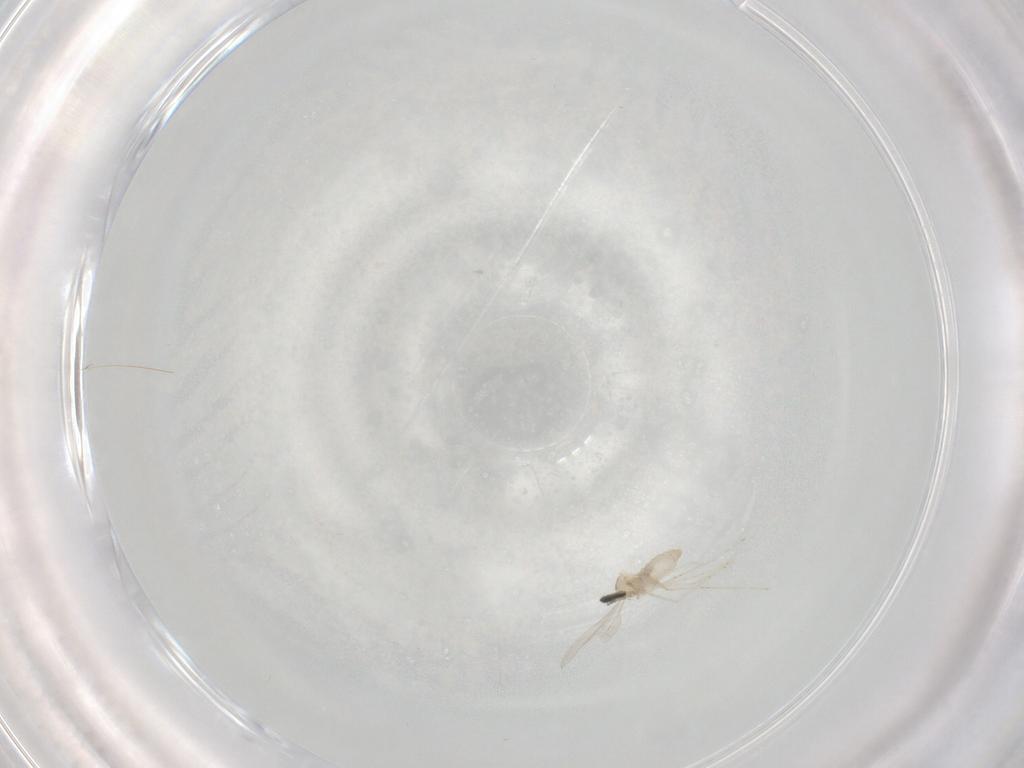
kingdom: Animalia
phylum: Arthropoda
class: Insecta
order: Diptera
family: Cecidomyiidae
